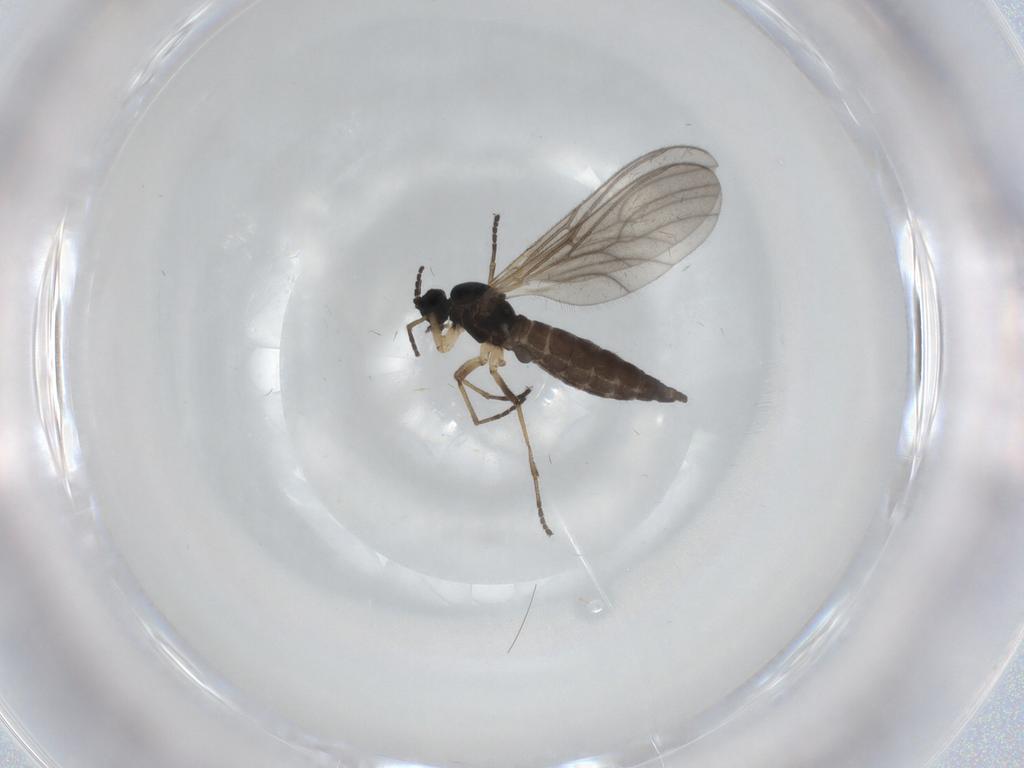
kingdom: Animalia
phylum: Arthropoda
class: Insecta
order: Diptera
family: Sciaridae
